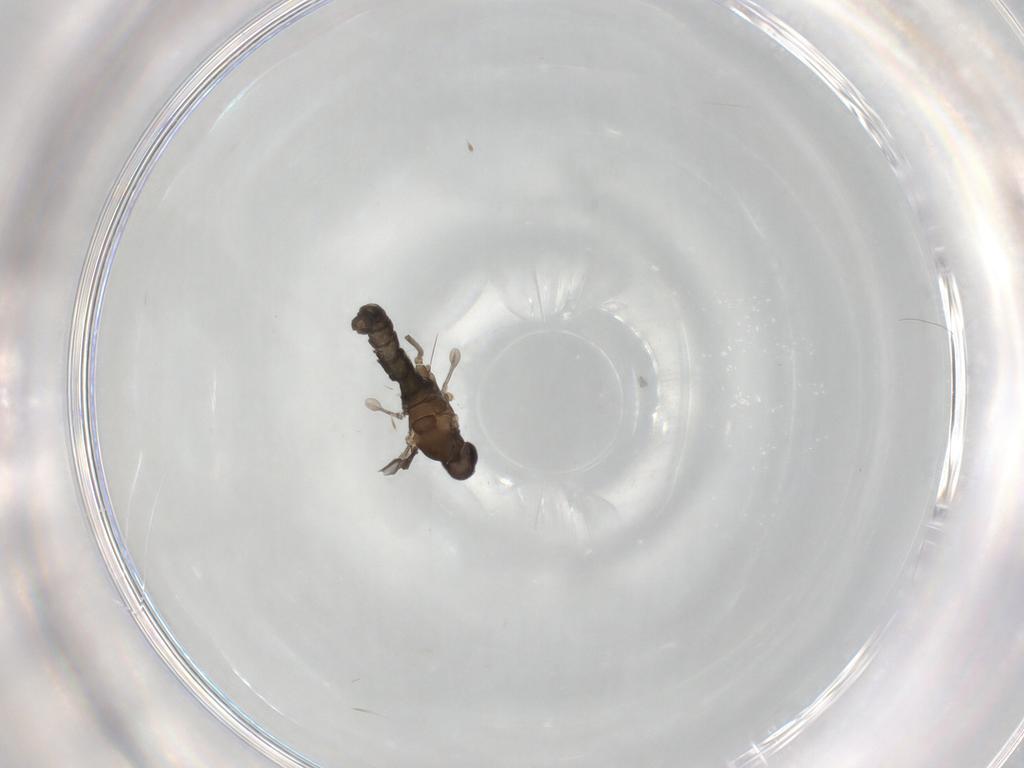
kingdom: Animalia
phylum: Arthropoda
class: Insecta
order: Diptera
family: Cecidomyiidae
